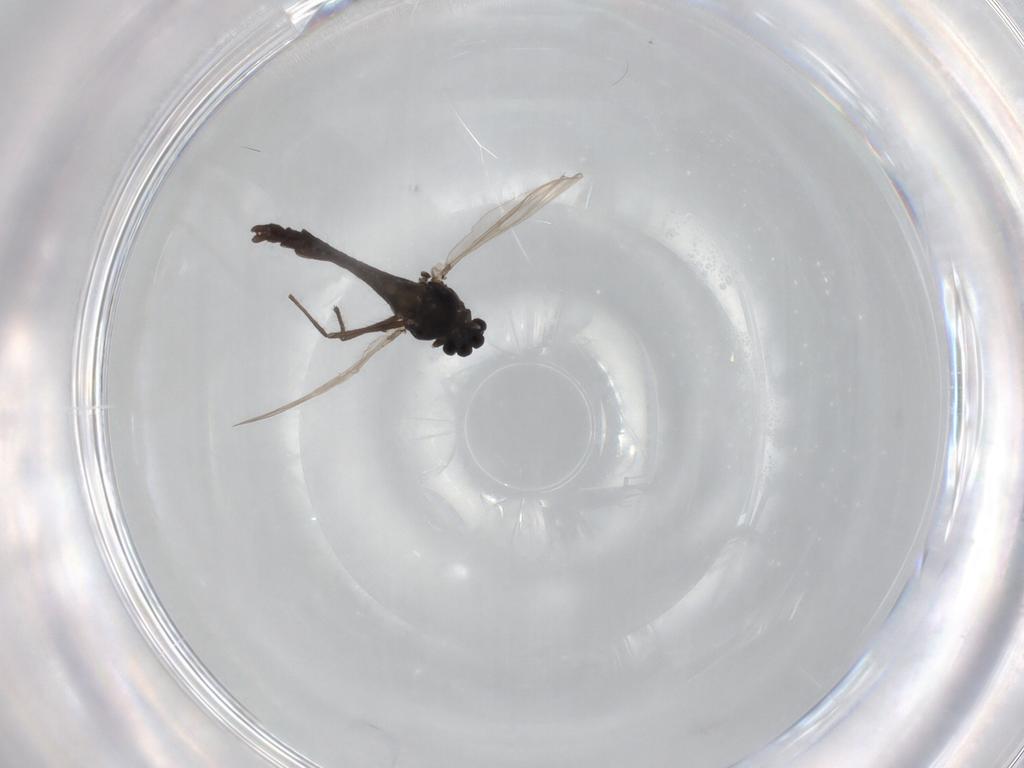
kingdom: Animalia
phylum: Arthropoda
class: Insecta
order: Diptera
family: Chironomidae
